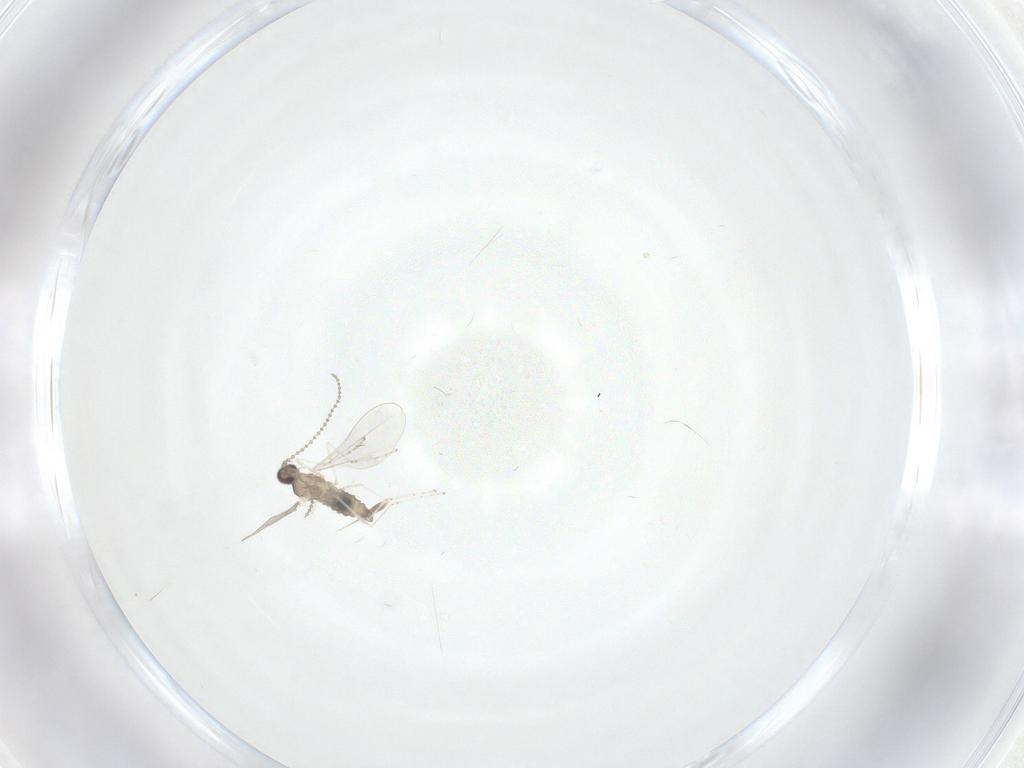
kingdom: Animalia
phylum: Arthropoda
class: Insecta
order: Diptera
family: Cecidomyiidae
